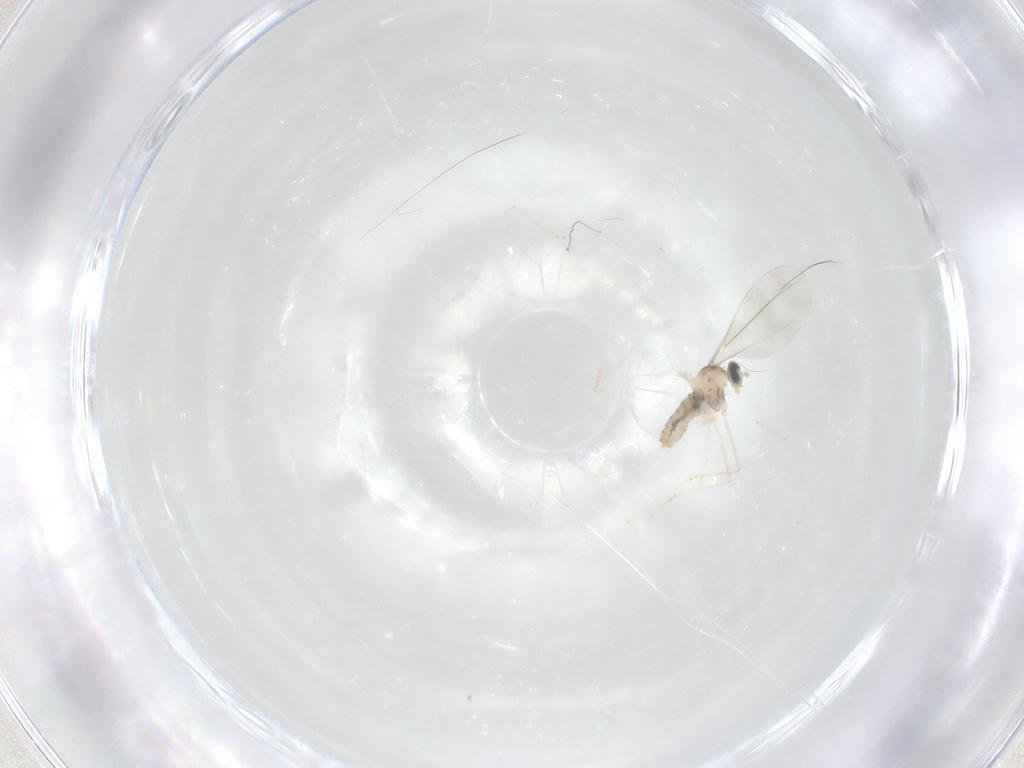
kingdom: Animalia
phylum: Arthropoda
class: Insecta
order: Diptera
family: Cecidomyiidae
